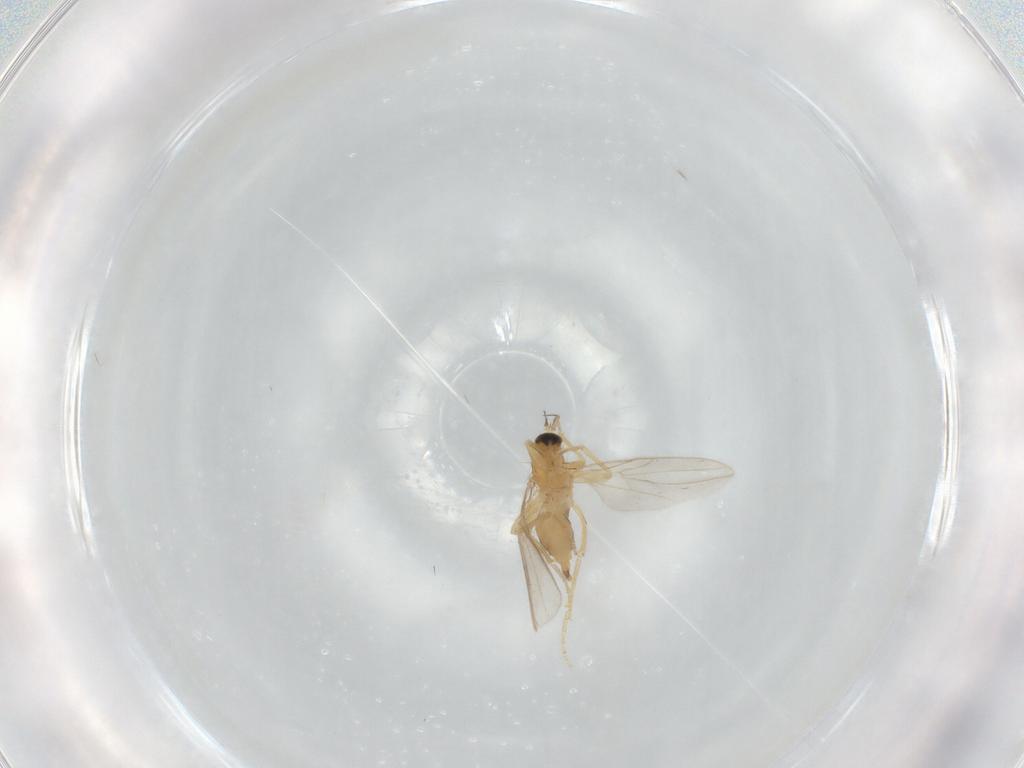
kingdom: Animalia
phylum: Arthropoda
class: Insecta
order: Diptera
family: Hybotidae
